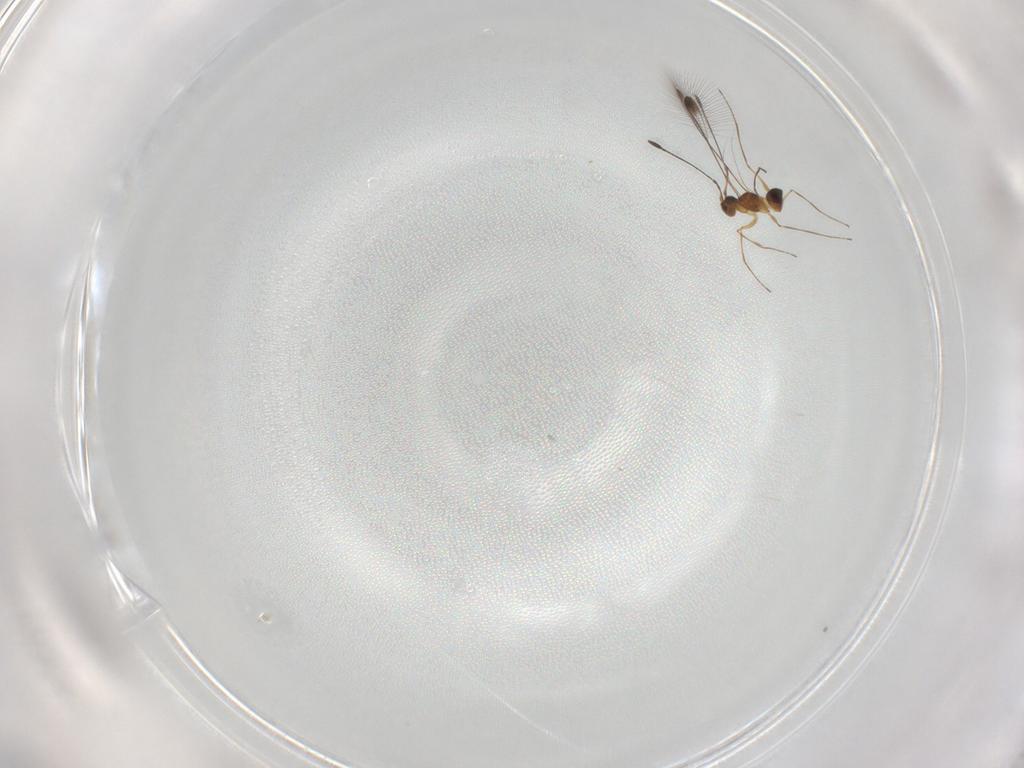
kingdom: Animalia
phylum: Arthropoda
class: Insecta
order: Hymenoptera
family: Mymaridae
